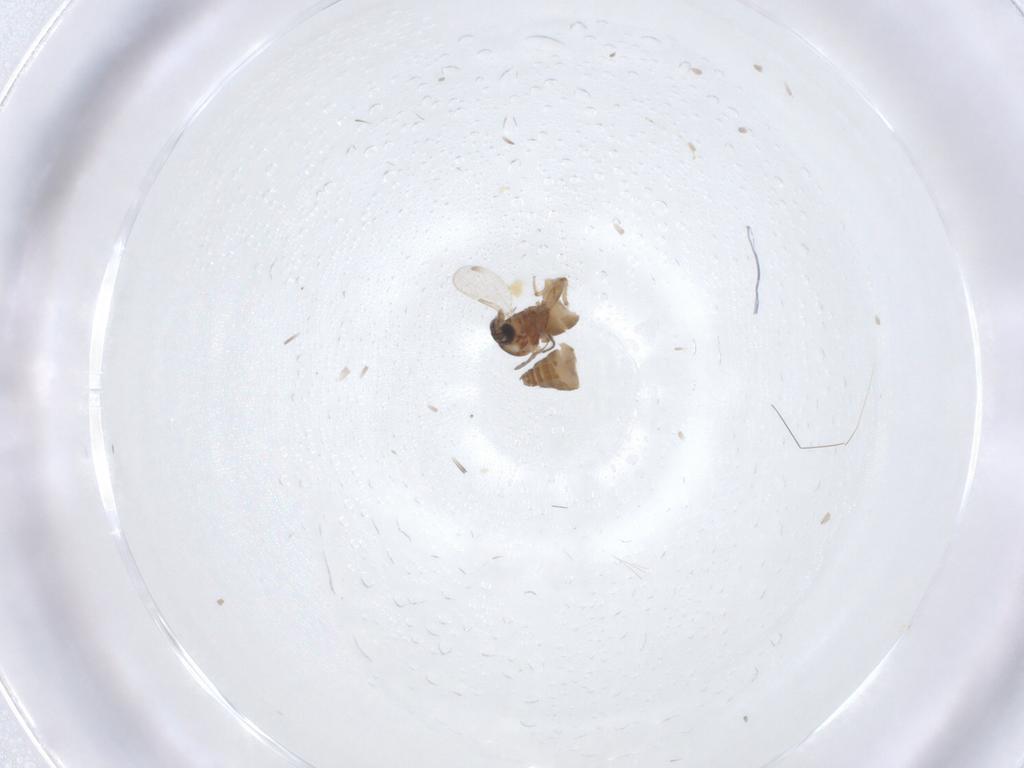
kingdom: Animalia
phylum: Arthropoda
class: Insecta
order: Diptera
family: Ceratopogonidae
